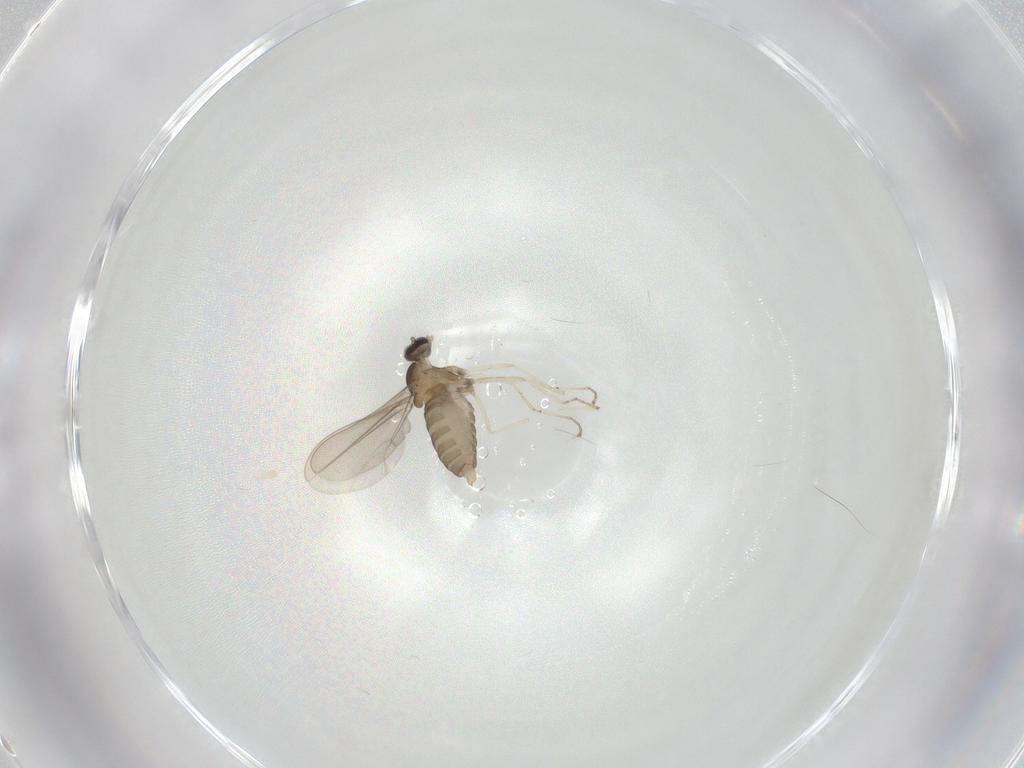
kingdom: Animalia
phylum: Arthropoda
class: Insecta
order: Diptera
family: Cecidomyiidae
